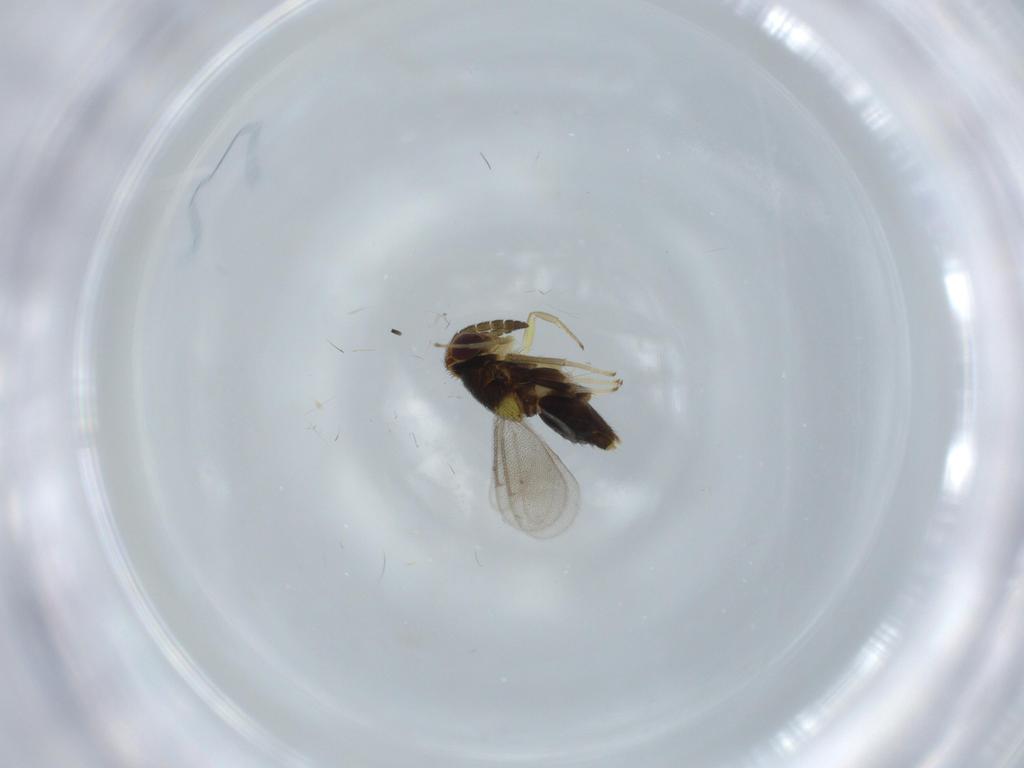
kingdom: Animalia
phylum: Arthropoda
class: Insecta
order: Hymenoptera
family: Aphelinidae
